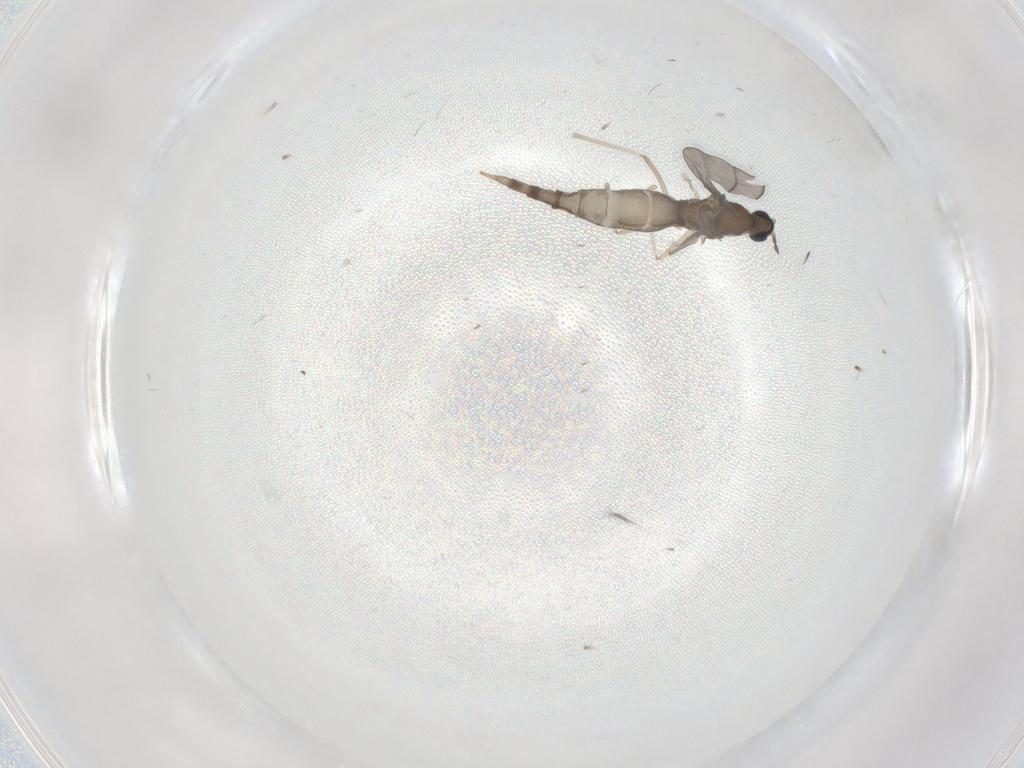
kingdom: Animalia
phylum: Arthropoda
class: Insecta
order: Diptera
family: Cecidomyiidae
